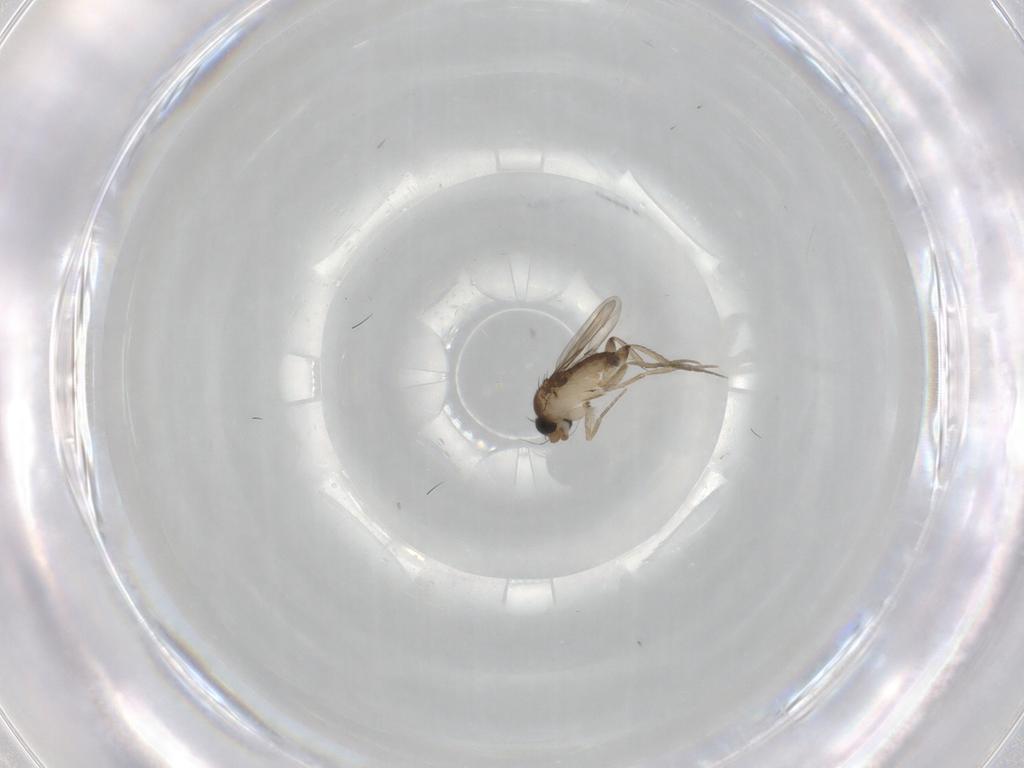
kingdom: Animalia
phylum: Arthropoda
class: Insecta
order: Diptera
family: Phoridae
